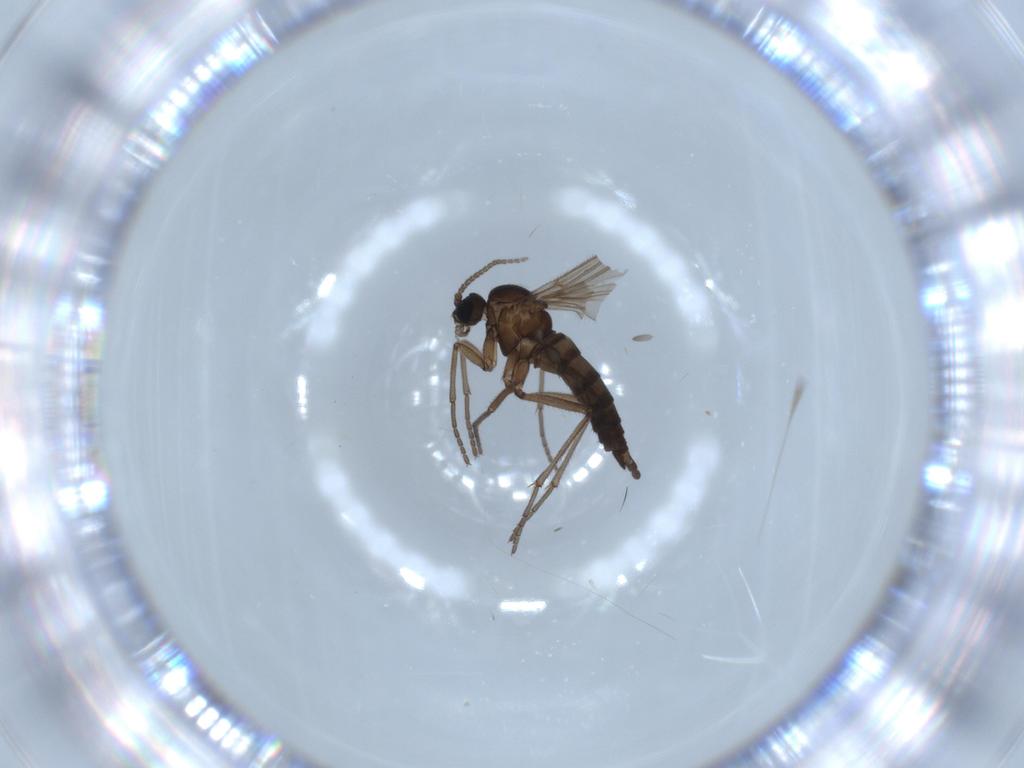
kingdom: Animalia
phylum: Arthropoda
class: Insecta
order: Diptera
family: Sciaridae
